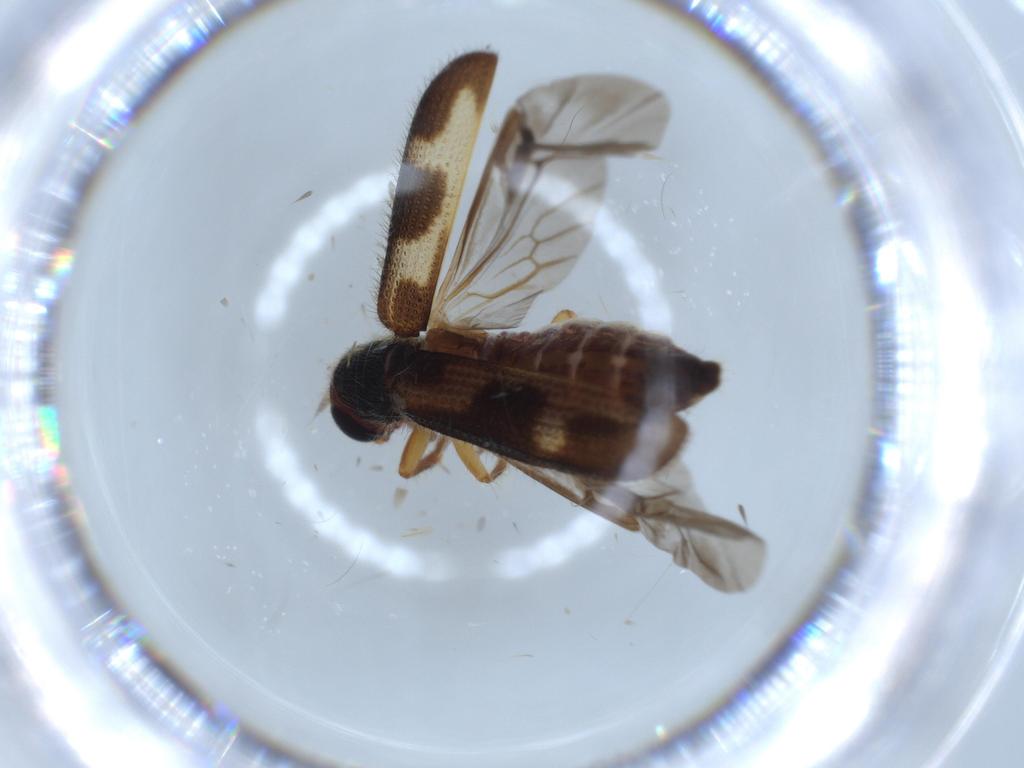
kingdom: Animalia
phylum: Arthropoda
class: Insecta
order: Coleoptera
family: Cleridae
